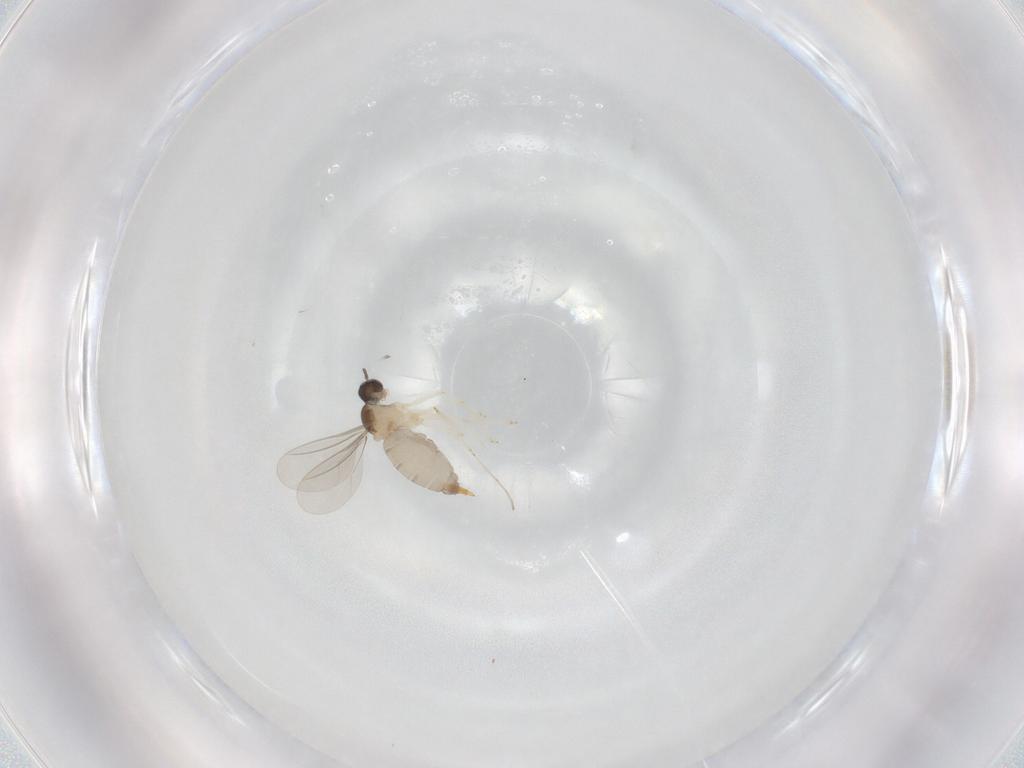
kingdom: Animalia
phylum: Arthropoda
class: Insecta
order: Diptera
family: Cecidomyiidae
